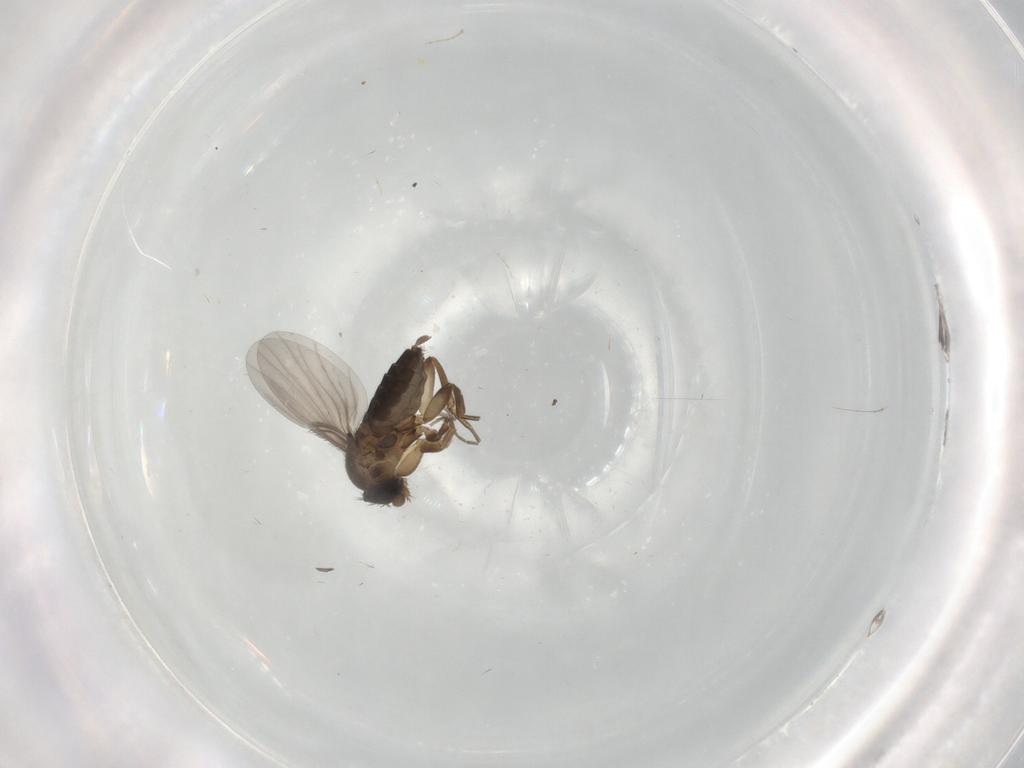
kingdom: Animalia
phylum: Arthropoda
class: Insecta
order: Diptera
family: Phoridae
